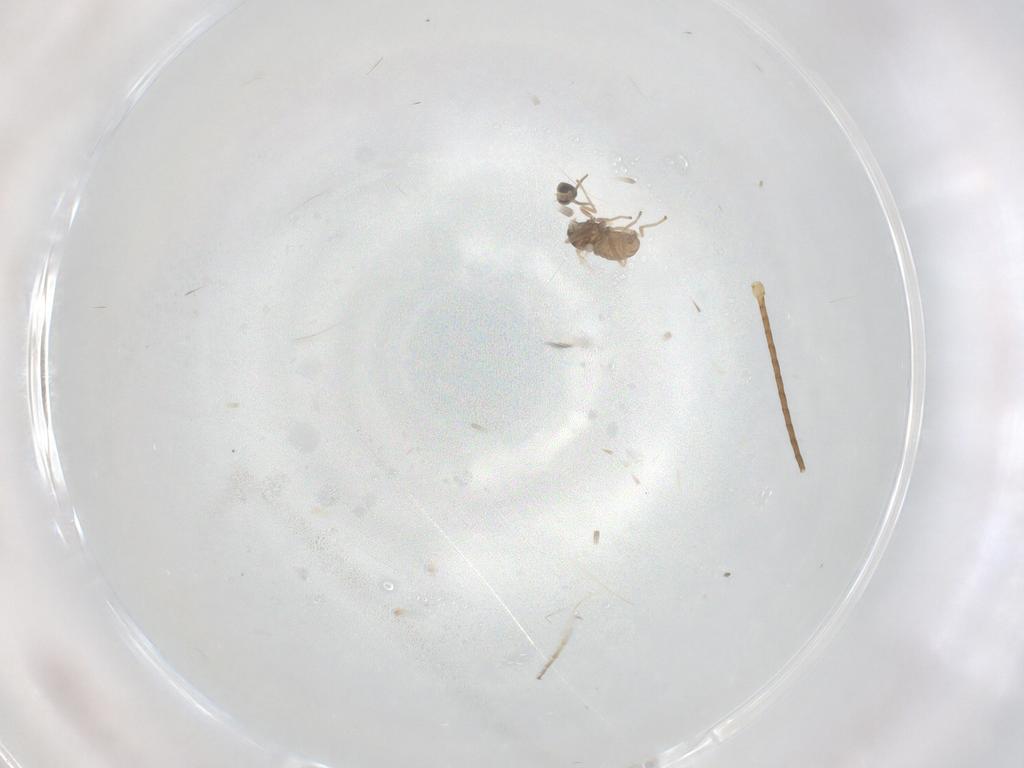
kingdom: Animalia
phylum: Arthropoda
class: Insecta
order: Diptera
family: Cecidomyiidae
